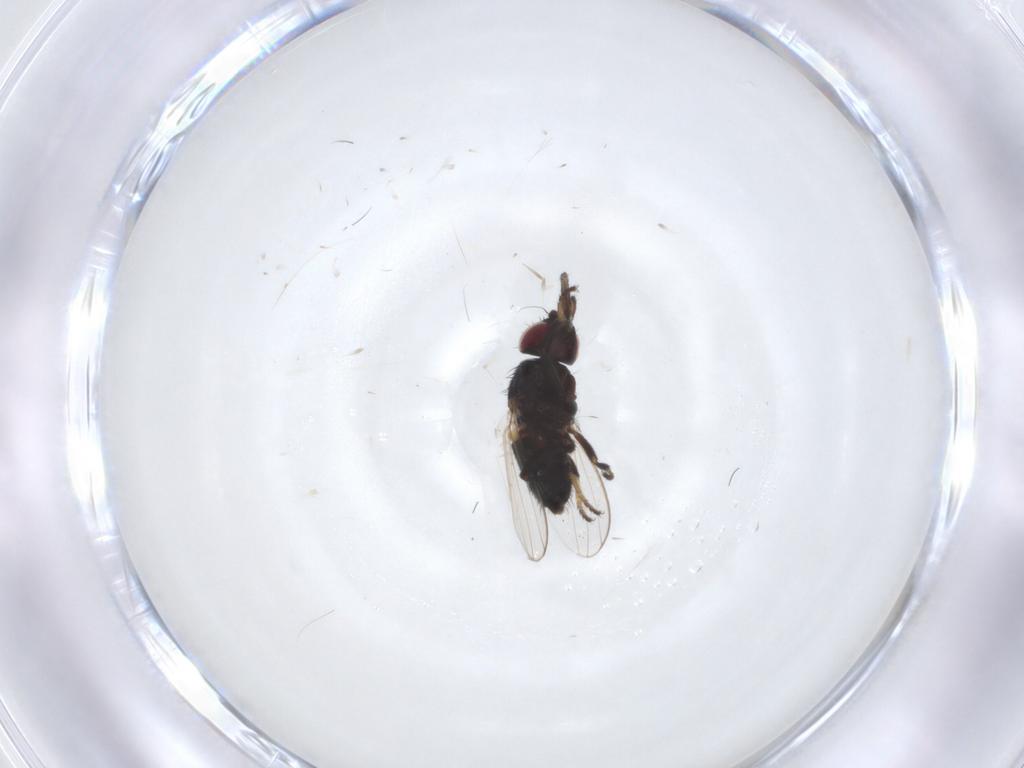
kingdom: Animalia
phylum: Arthropoda
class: Insecta
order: Diptera
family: Milichiidae
